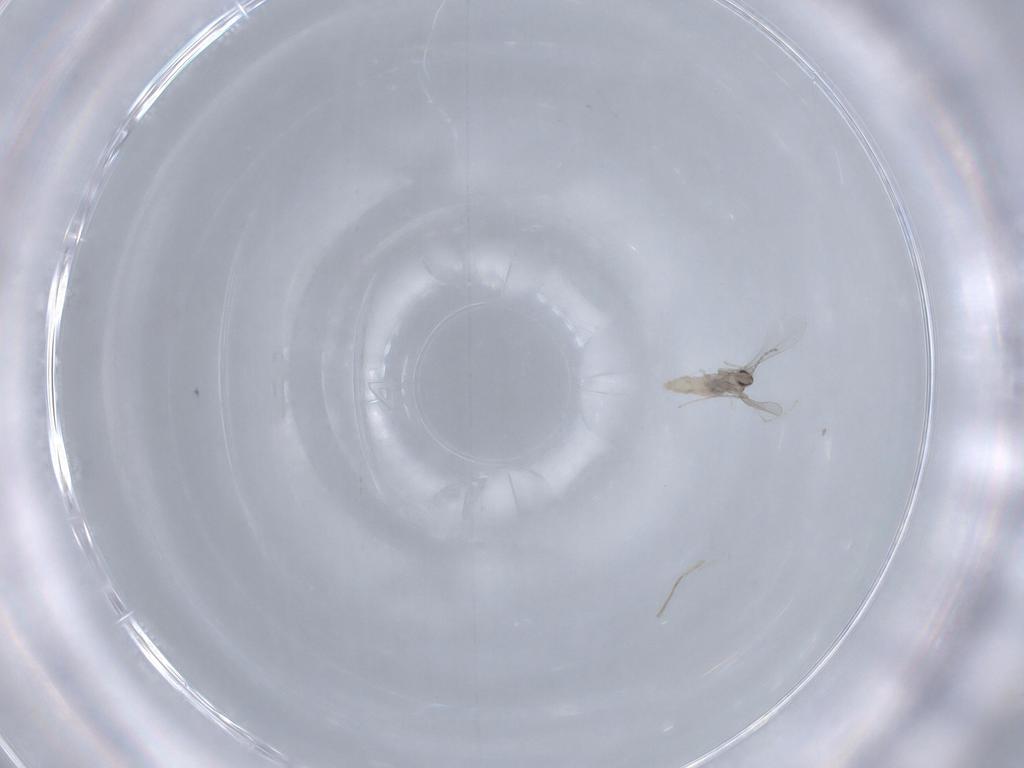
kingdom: Animalia
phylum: Arthropoda
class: Insecta
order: Diptera
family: Cecidomyiidae
